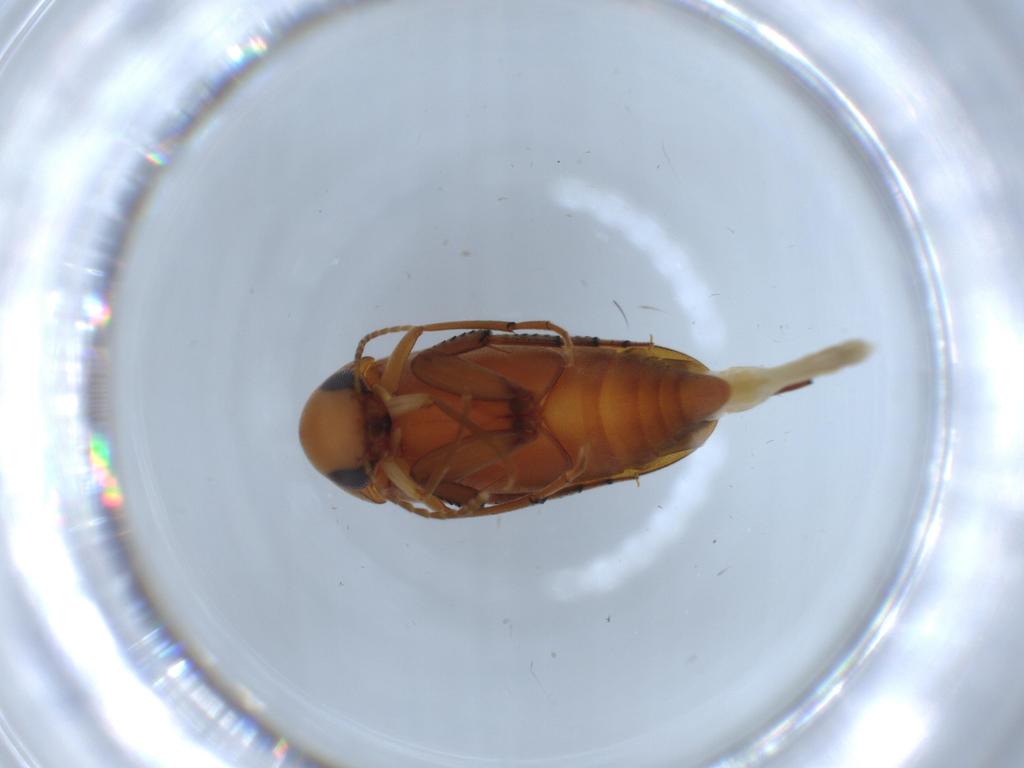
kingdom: Animalia
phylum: Arthropoda
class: Insecta
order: Coleoptera
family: Mordellidae
